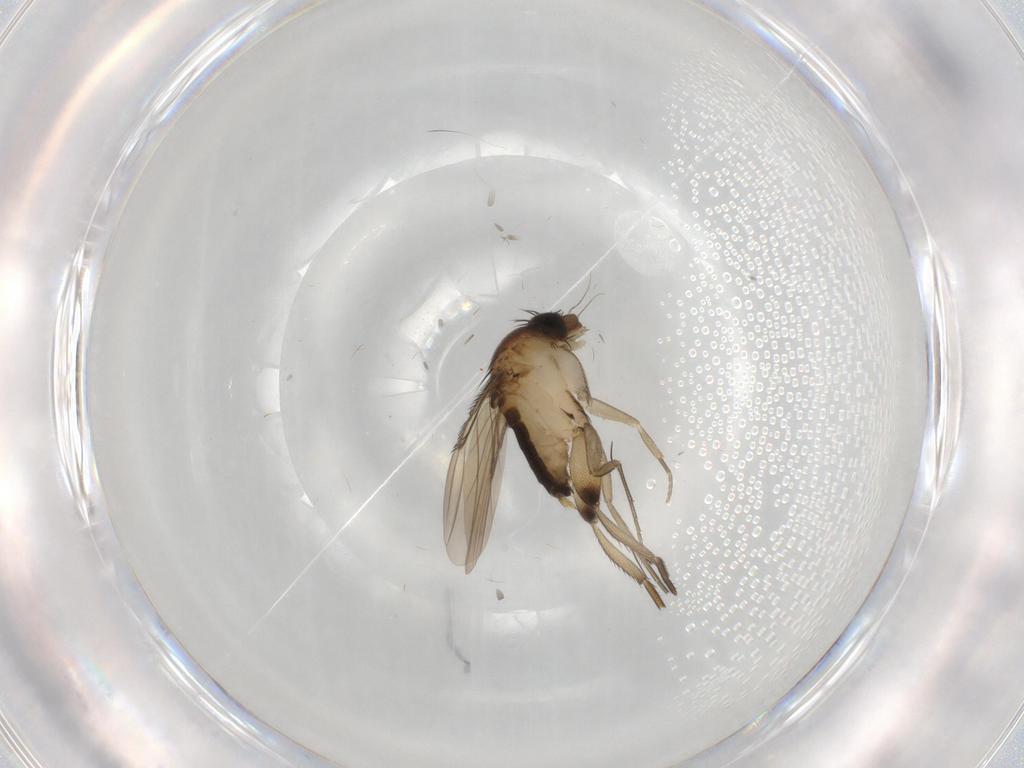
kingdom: Animalia
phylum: Arthropoda
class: Insecta
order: Diptera
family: Phoridae
